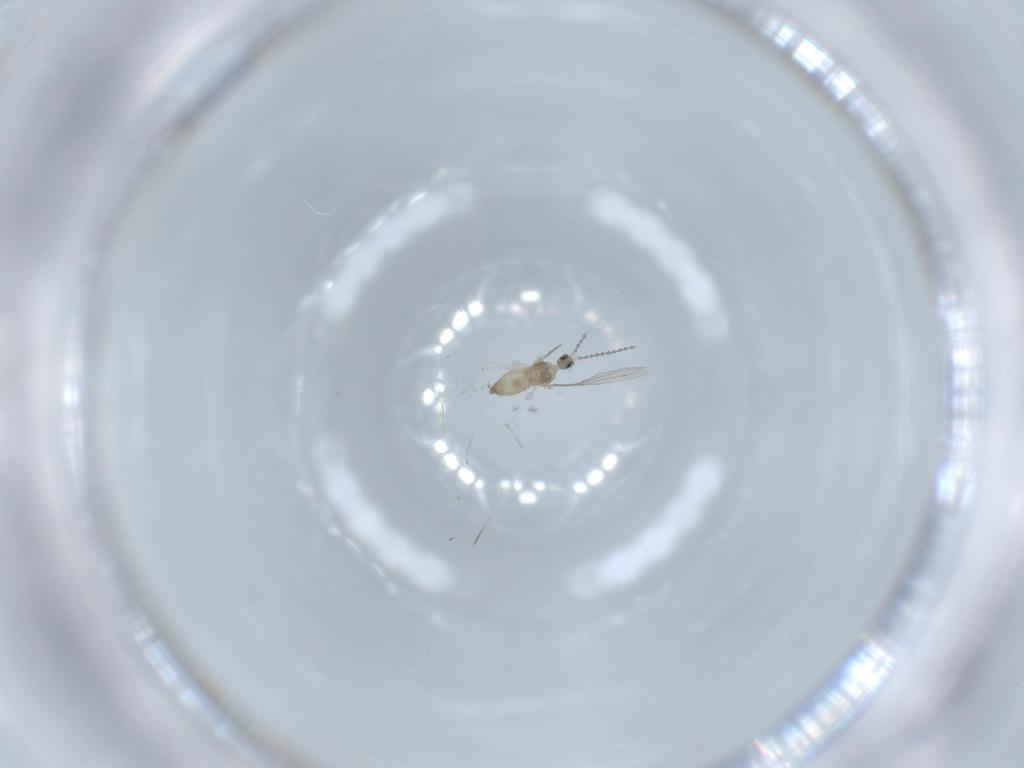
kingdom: Animalia
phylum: Arthropoda
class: Insecta
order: Diptera
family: Cecidomyiidae
